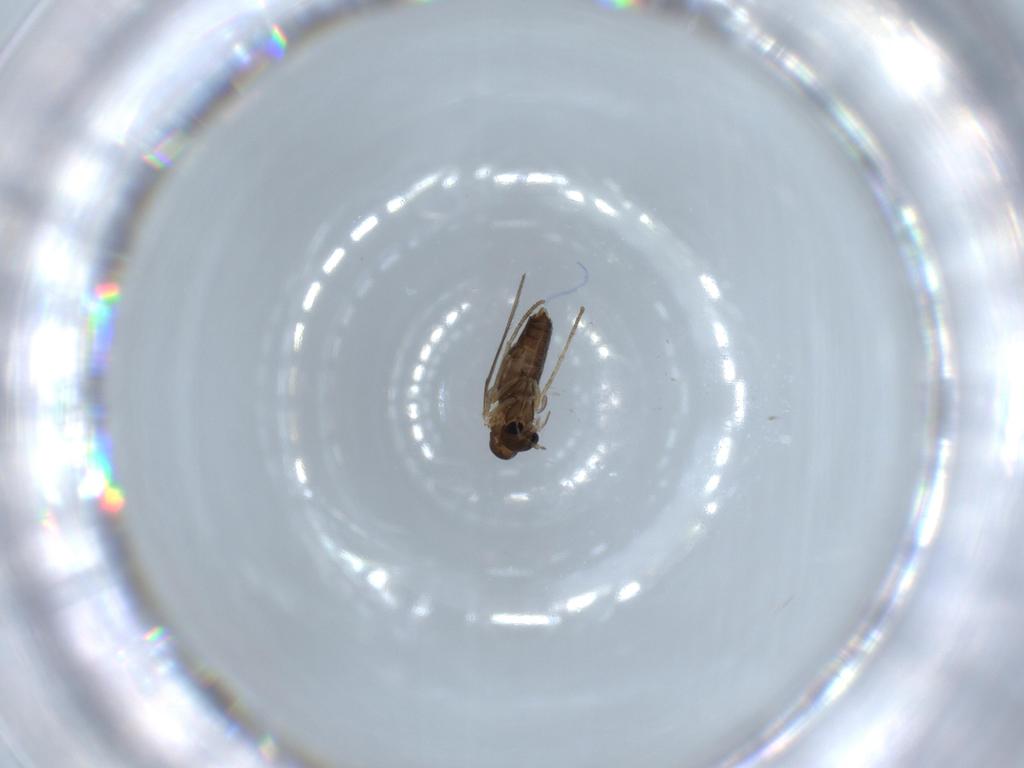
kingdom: Animalia
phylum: Arthropoda
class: Insecta
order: Diptera
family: Psychodidae
